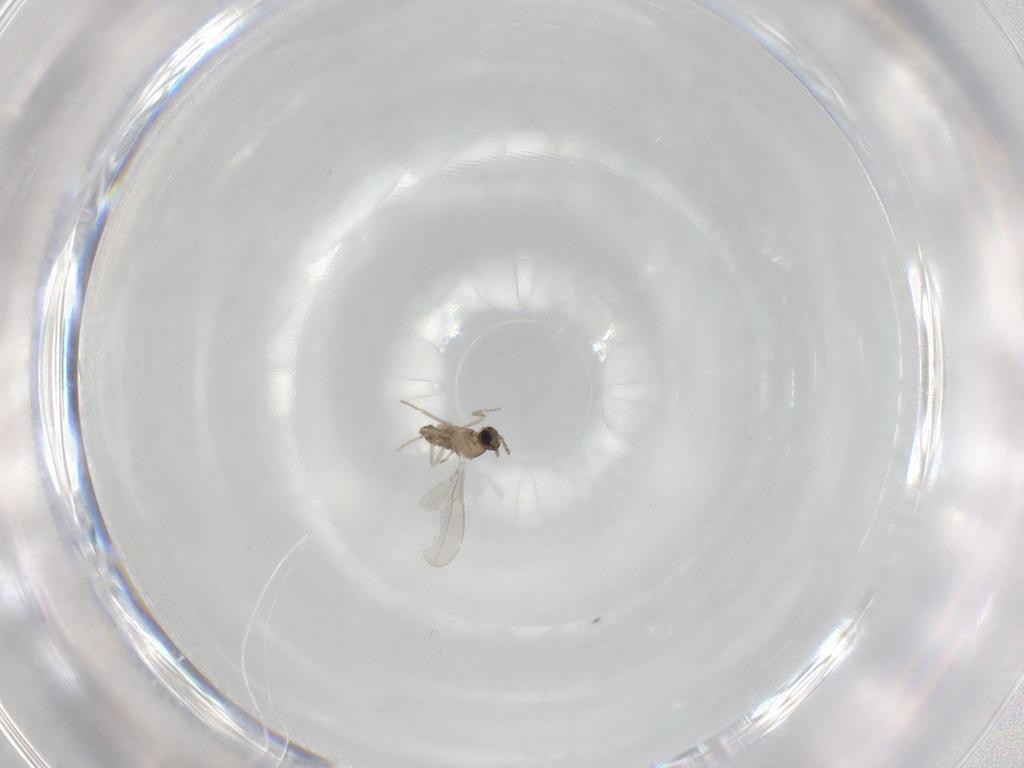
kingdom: Animalia
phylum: Arthropoda
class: Insecta
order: Diptera
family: Cecidomyiidae
